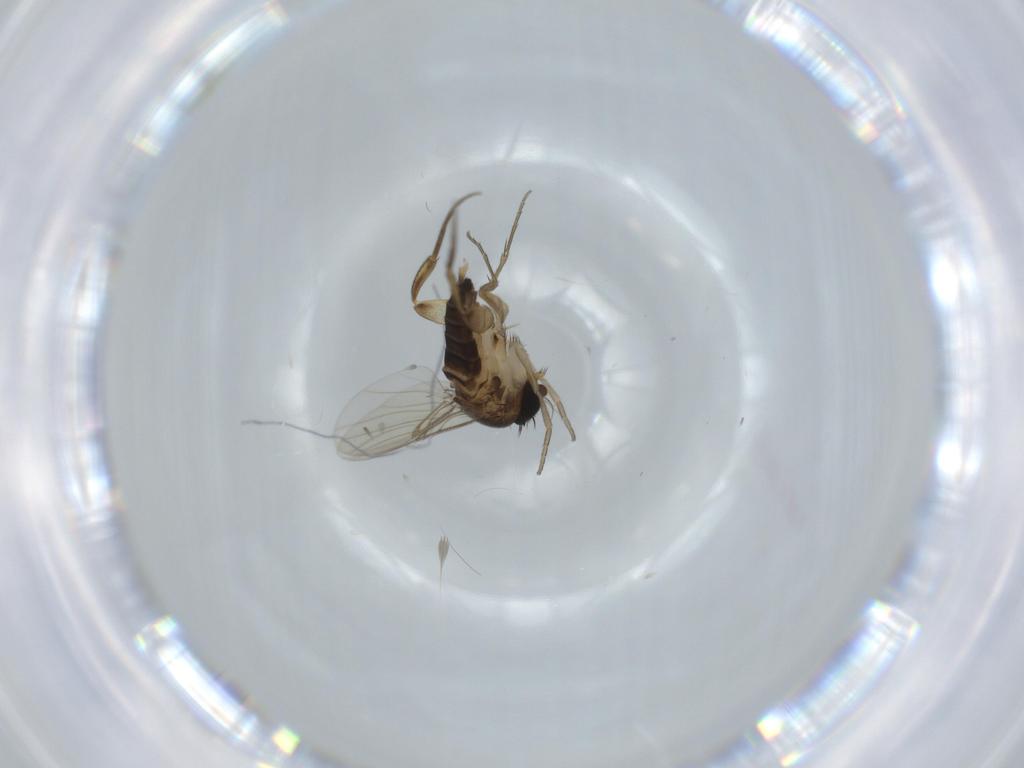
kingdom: Animalia
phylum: Arthropoda
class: Insecta
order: Diptera
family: Phoridae
